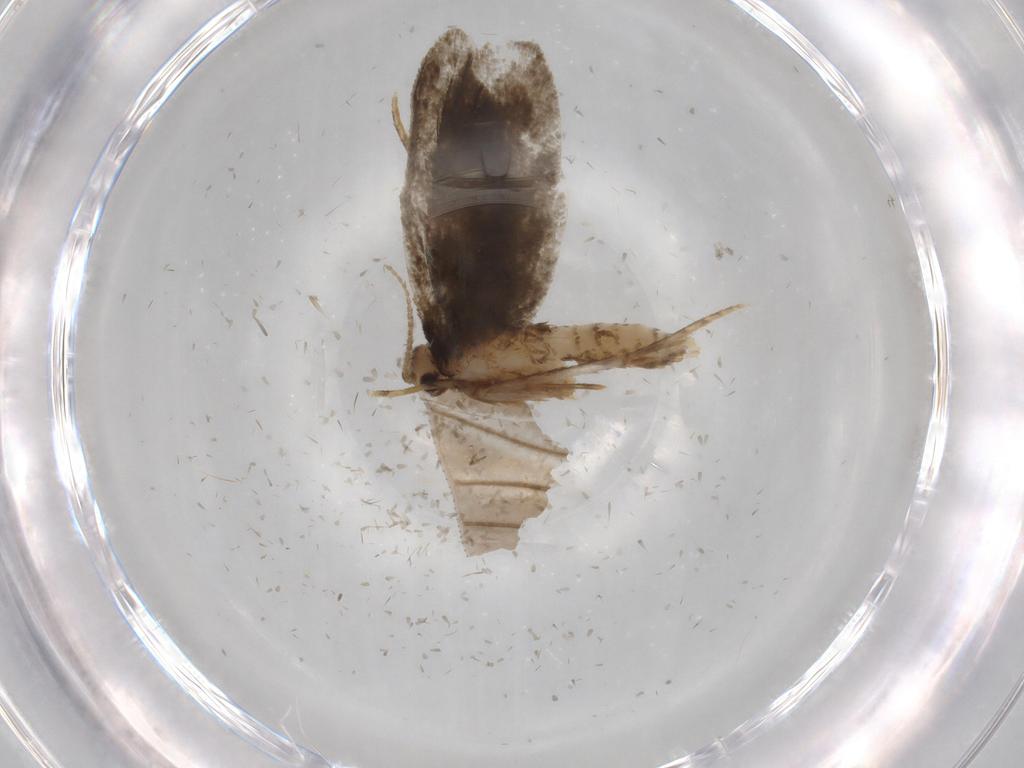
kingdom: Animalia
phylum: Arthropoda
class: Insecta
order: Lepidoptera
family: Psychidae
